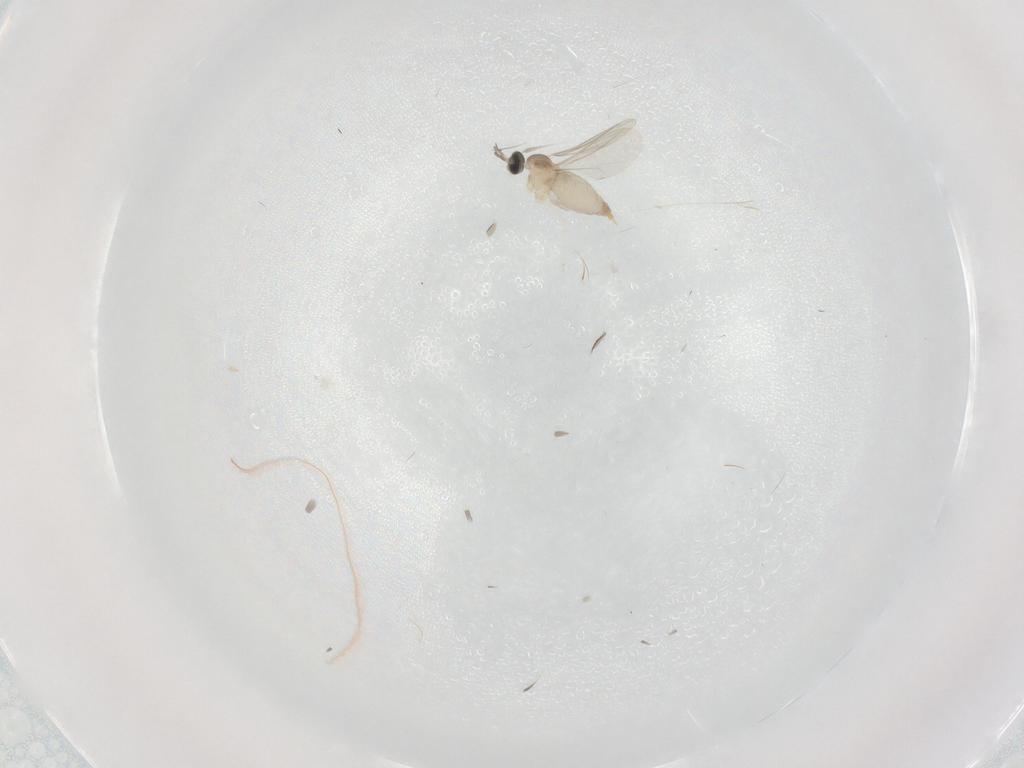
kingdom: Animalia
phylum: Arthropoda
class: Insecta
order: Diptera
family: Cecidomyiidae
